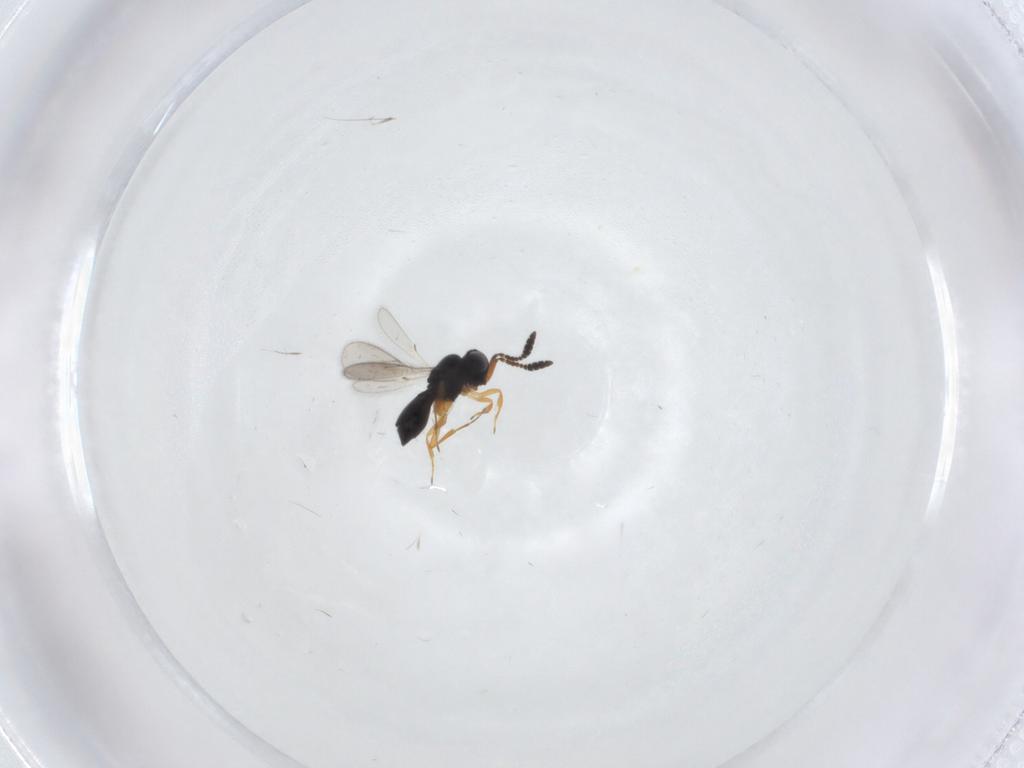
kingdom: Animalia
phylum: Arthropoda
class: Insecta
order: Hymenoptera
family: Scelionidae
